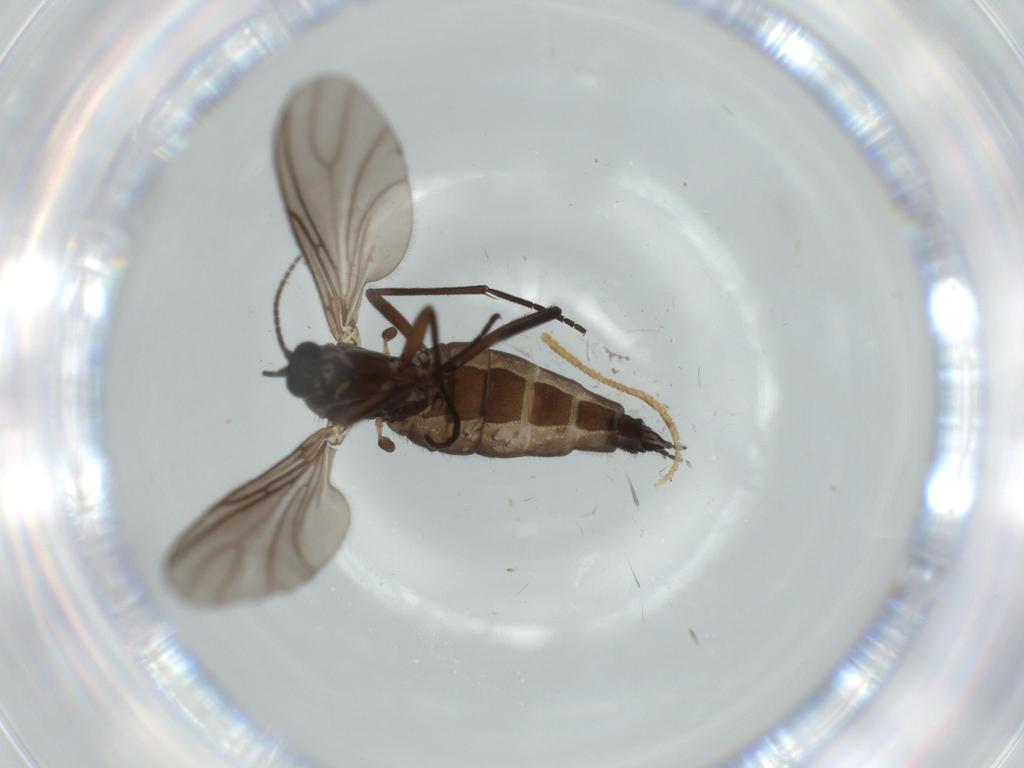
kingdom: Animalia
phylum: Arthropoda
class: Insecta
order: Diptera
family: Sciaridae
